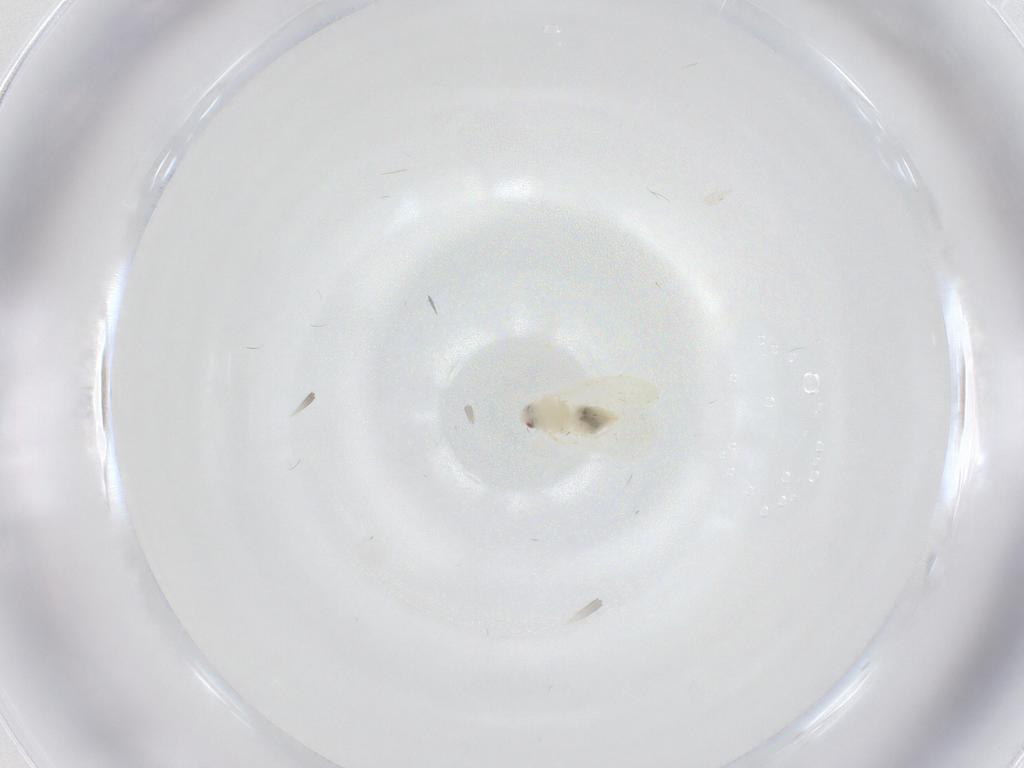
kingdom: Animalia
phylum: Arthropoda
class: Insecta
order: Hemiptera
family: Aleyrodidae
